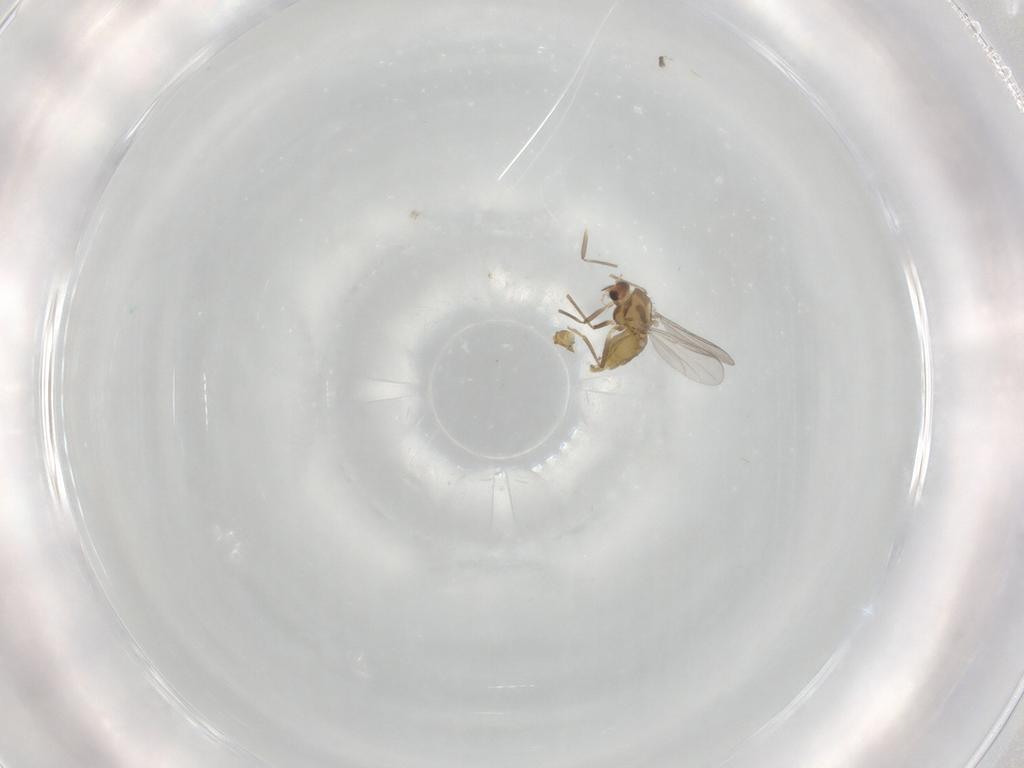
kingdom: Animalia
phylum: Arthropoda
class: Insecta
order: Diptera
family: Chironomidae
